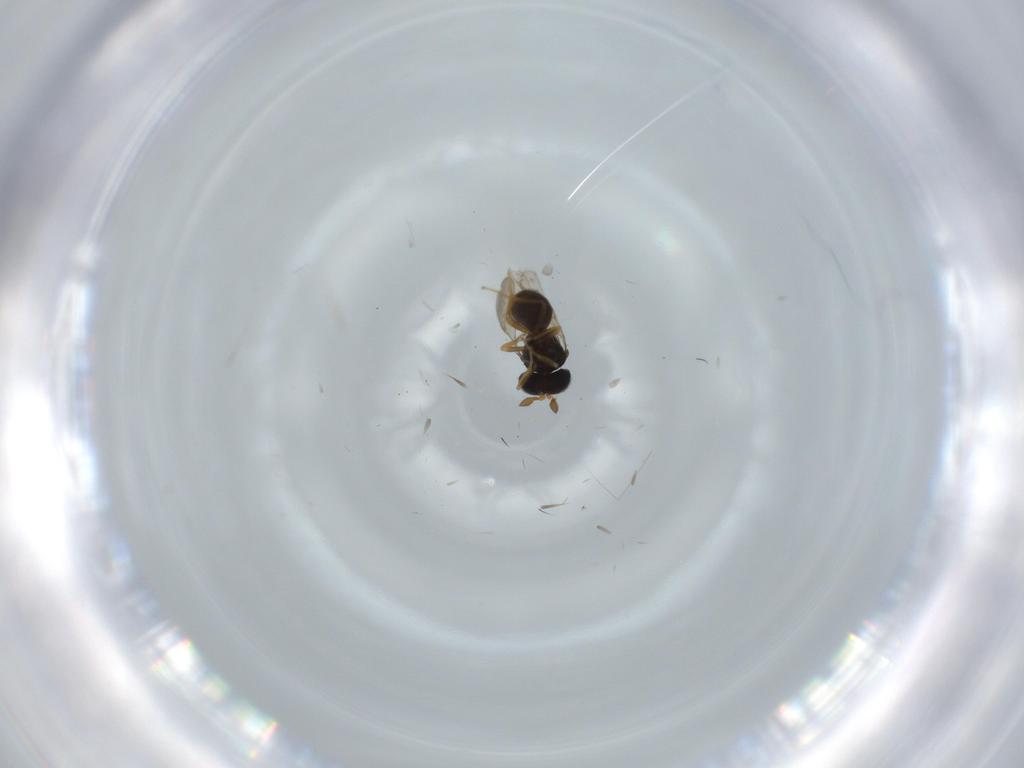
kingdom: Animalia
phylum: Arthropoda
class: Insecta
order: Hymenoptera
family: Scelionidae
